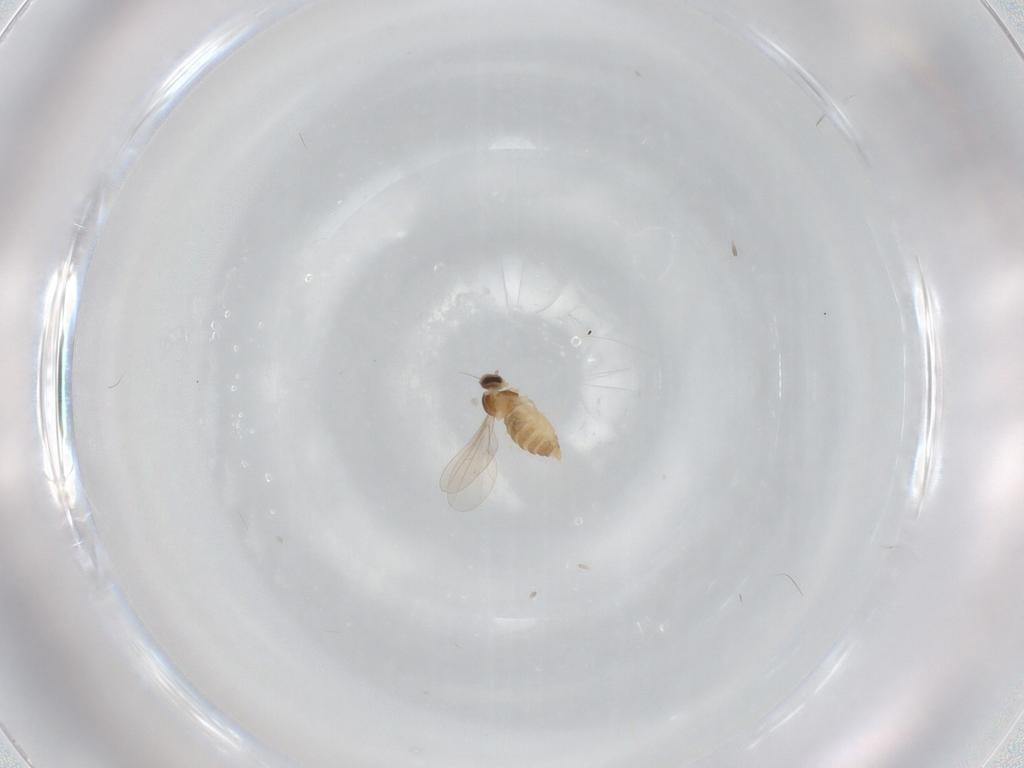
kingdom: Animalia
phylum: Arthropoda
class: Insecta
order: Diptera
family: Cecidomyiidae
